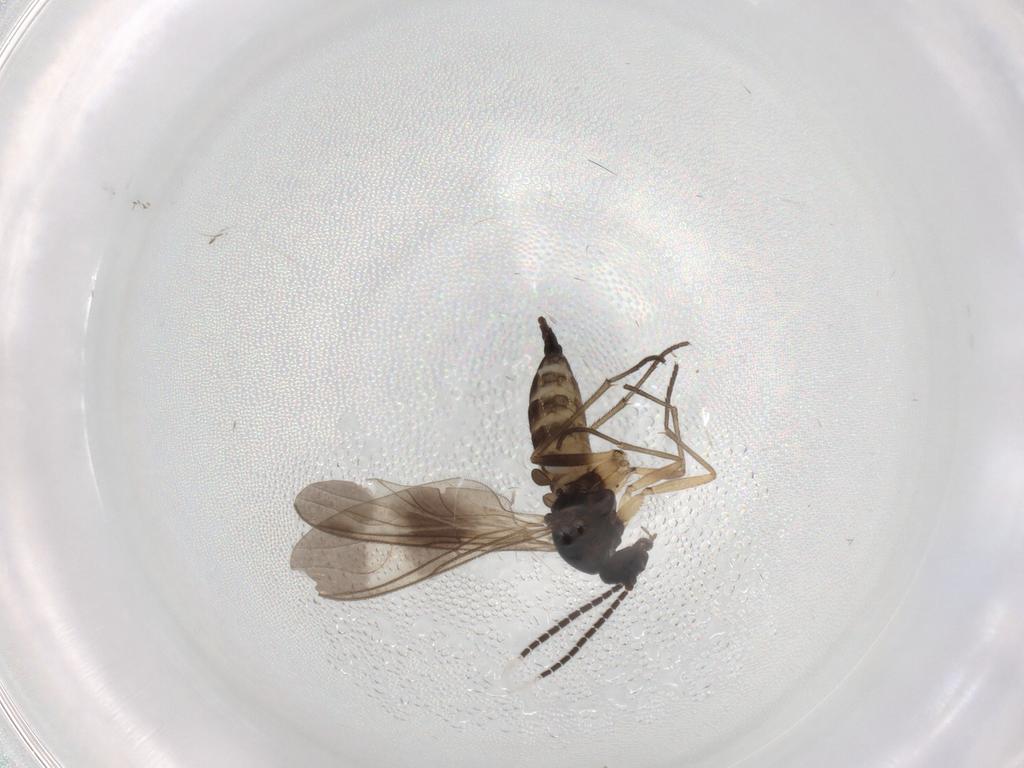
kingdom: Animalia
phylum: Arthropoda
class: Insecta
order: Diptera
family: Sciaridae
